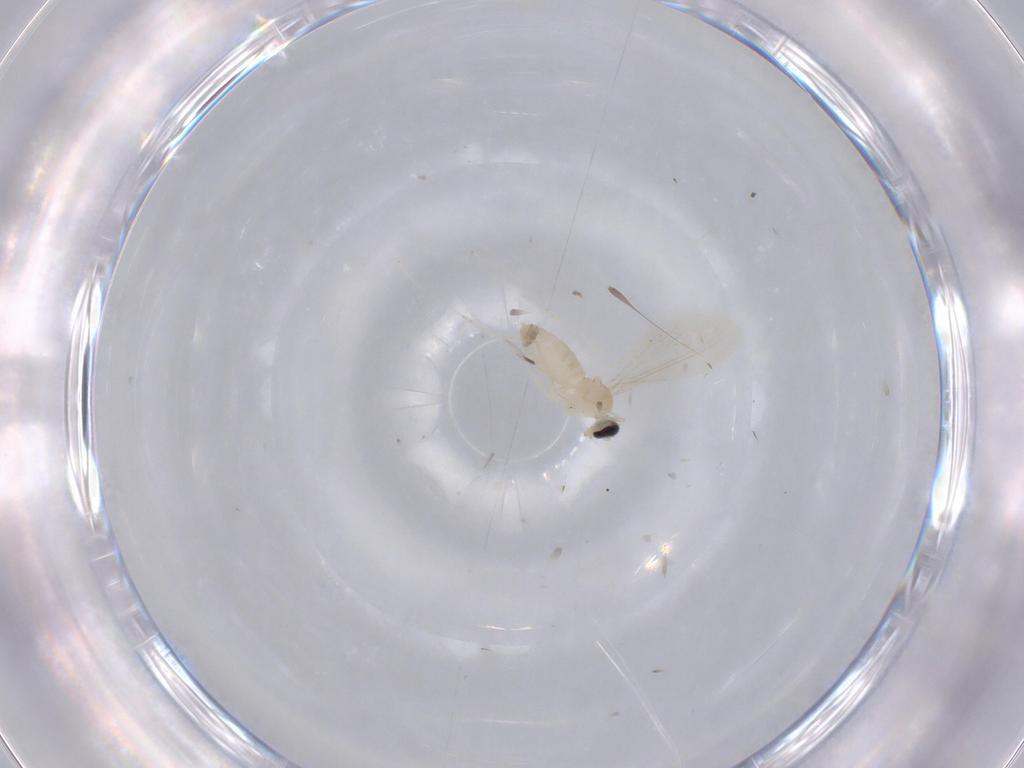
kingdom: Animalia
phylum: Arthropoda
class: Insecta
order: Diptera
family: Cecidomyiidae
